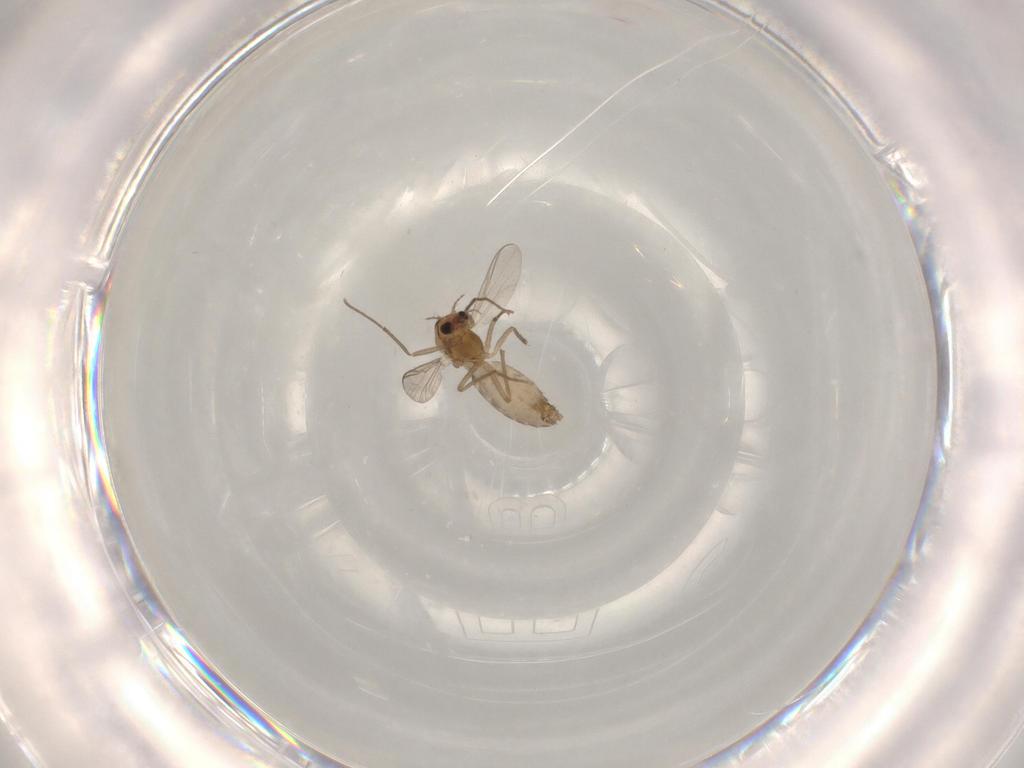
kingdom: Animalia
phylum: Arthropoda
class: Insecta
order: Diptera
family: Chironomidae
